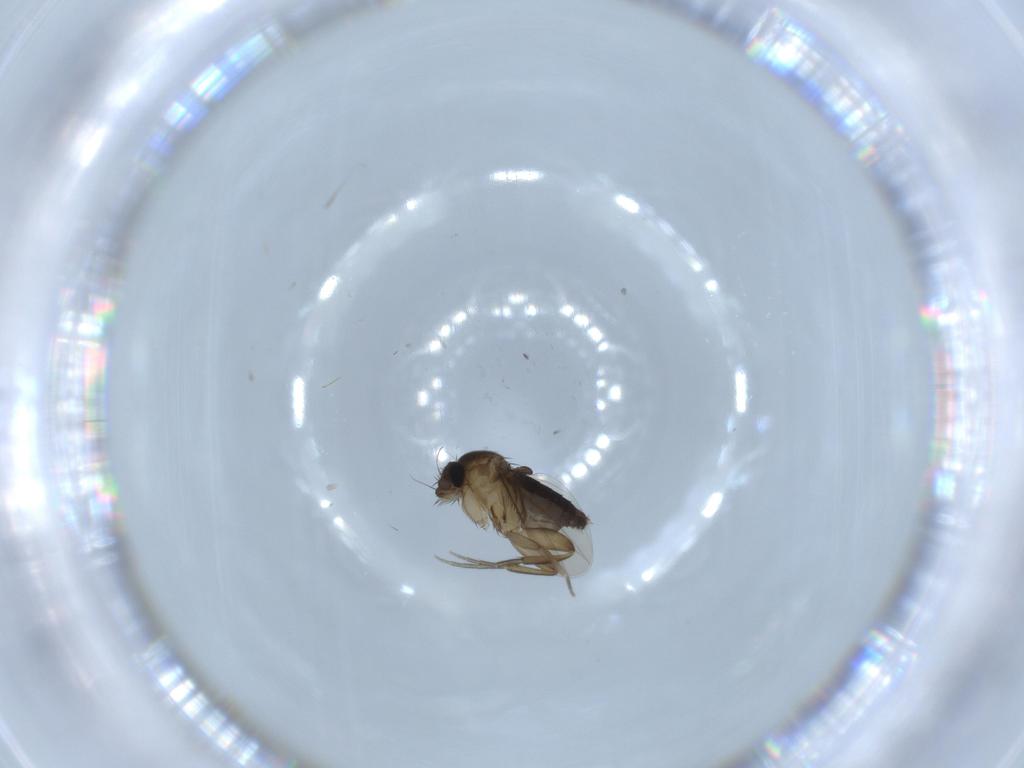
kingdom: Animalia
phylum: Arthropoda
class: Insecta
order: Diptera
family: Phoridae
